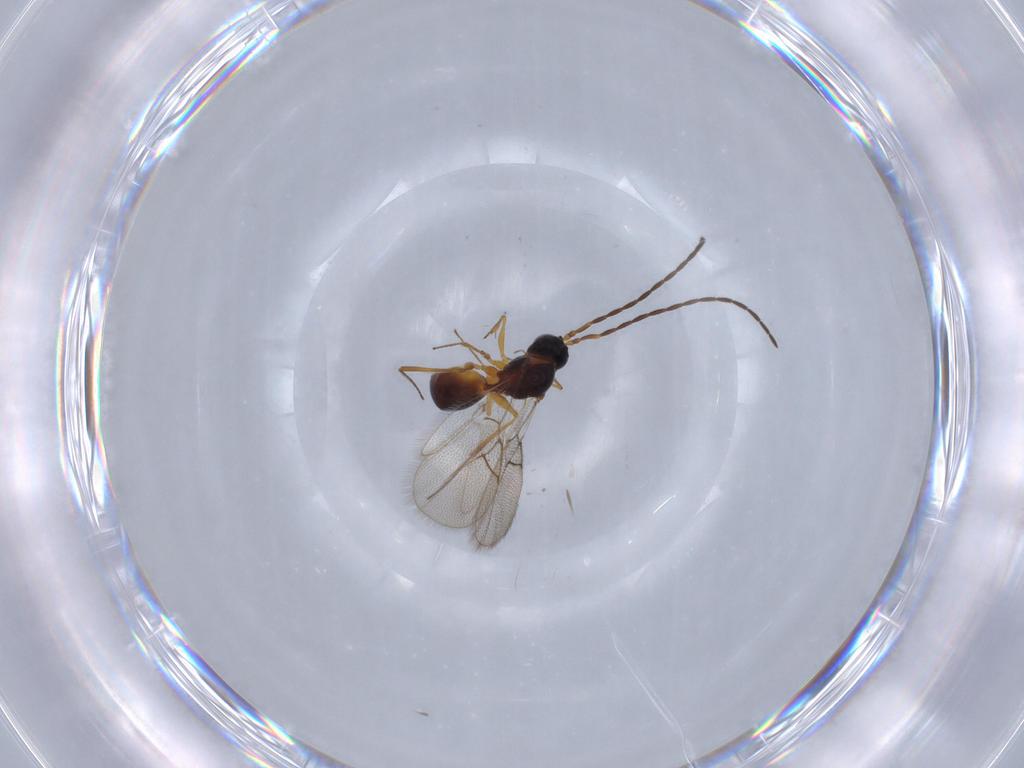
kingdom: Animalia
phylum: Arthropoda
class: Insecta
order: Hymenoptera
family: Figitidae
